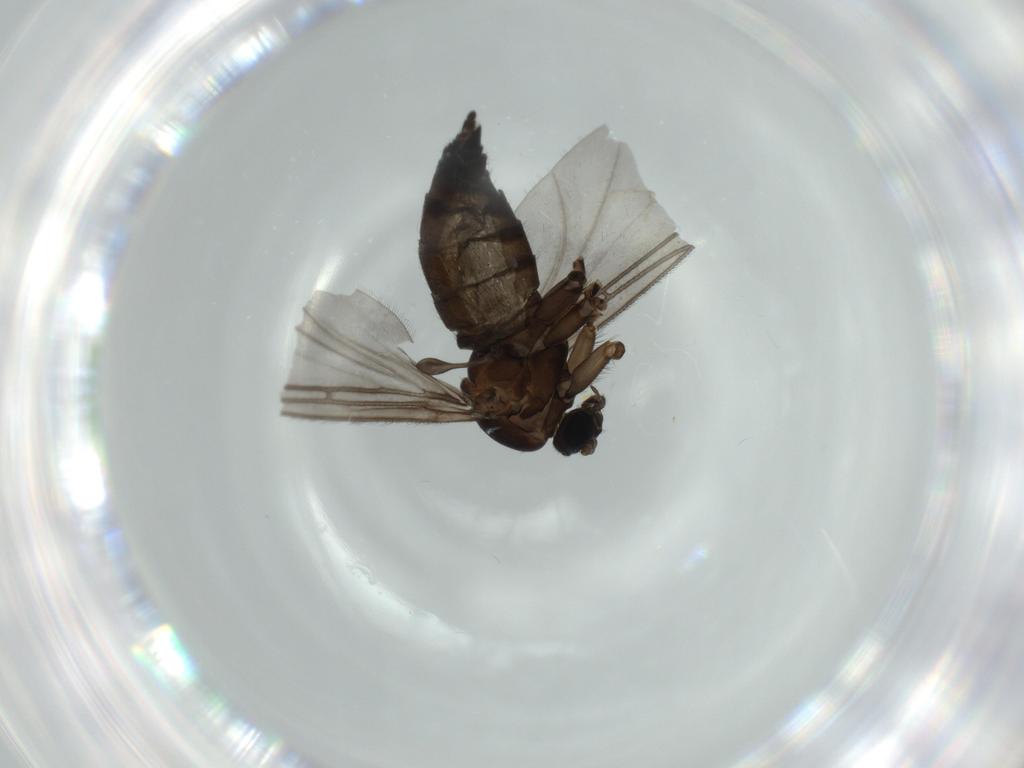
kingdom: Animalia
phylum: Arthropoda
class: Insecta
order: Diptera
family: Sciaridae
